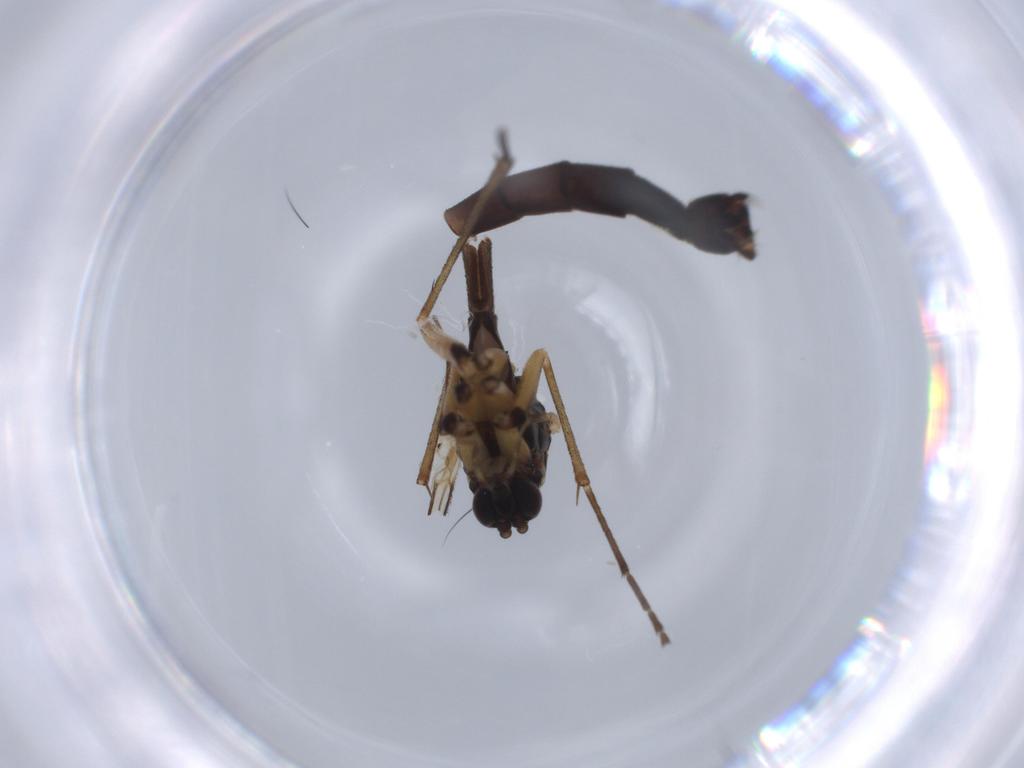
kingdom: Animalia
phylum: Arthropoda
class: Insecta
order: Diptera
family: Mycetophilidae
